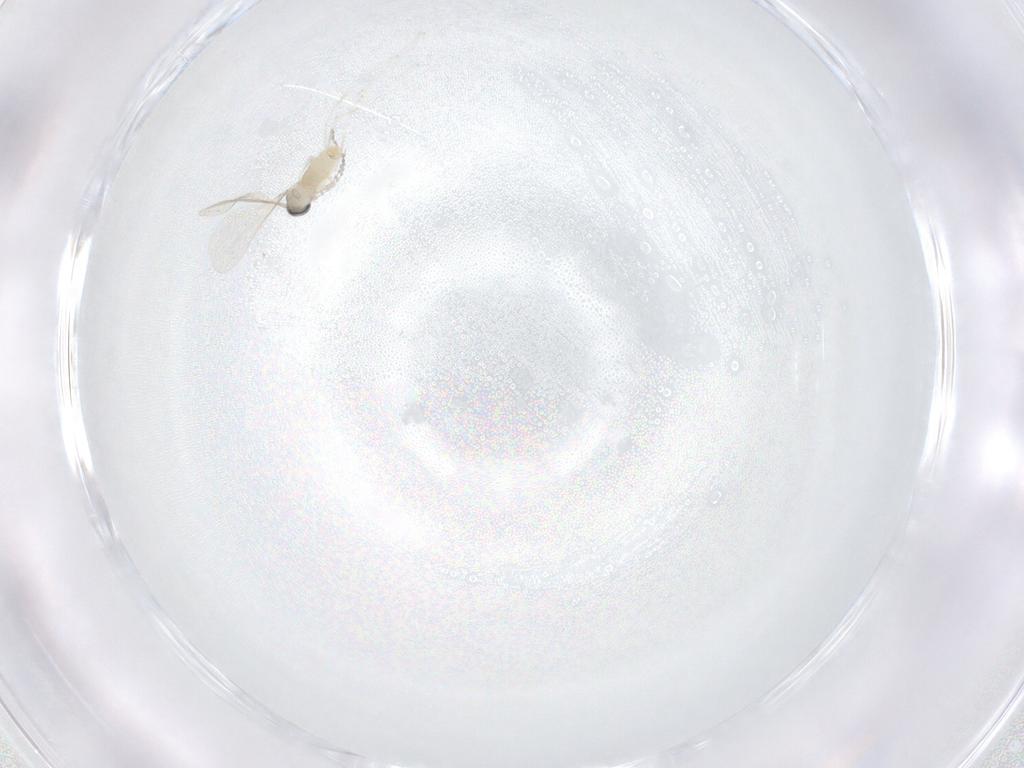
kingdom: Animalia
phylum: Arthropoda
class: Insecta
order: Diptera
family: Cecidomyiidae
